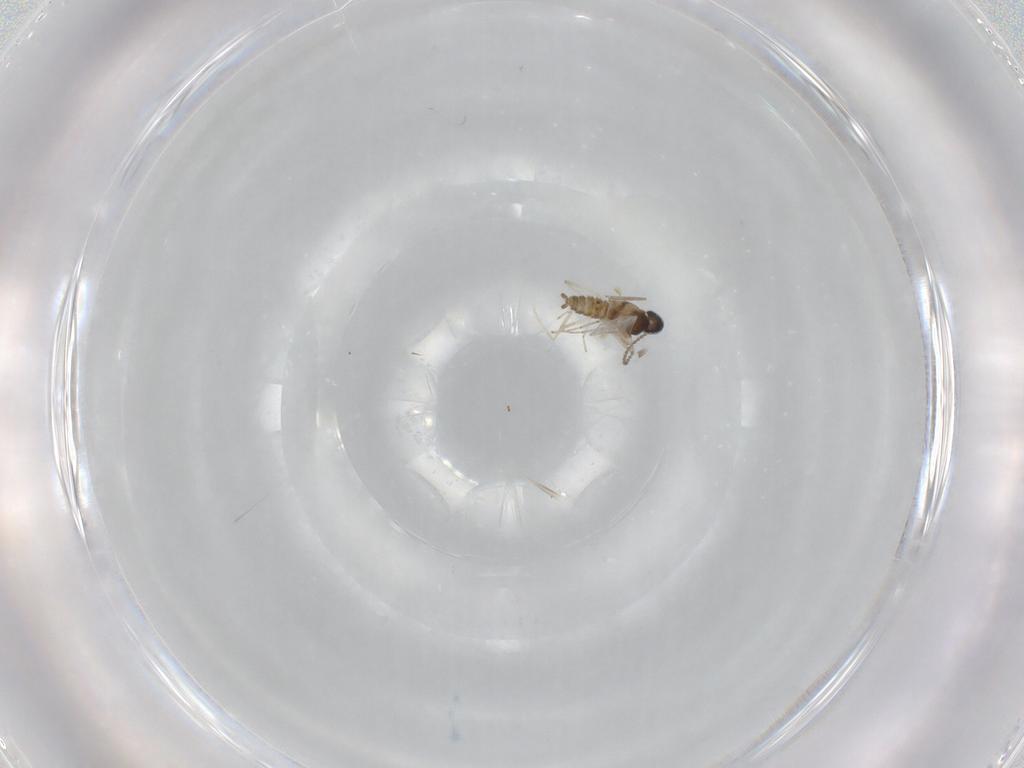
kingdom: Animalia
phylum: Arthropoda
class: Insecta
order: Diptera
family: Cecidomyiidae
